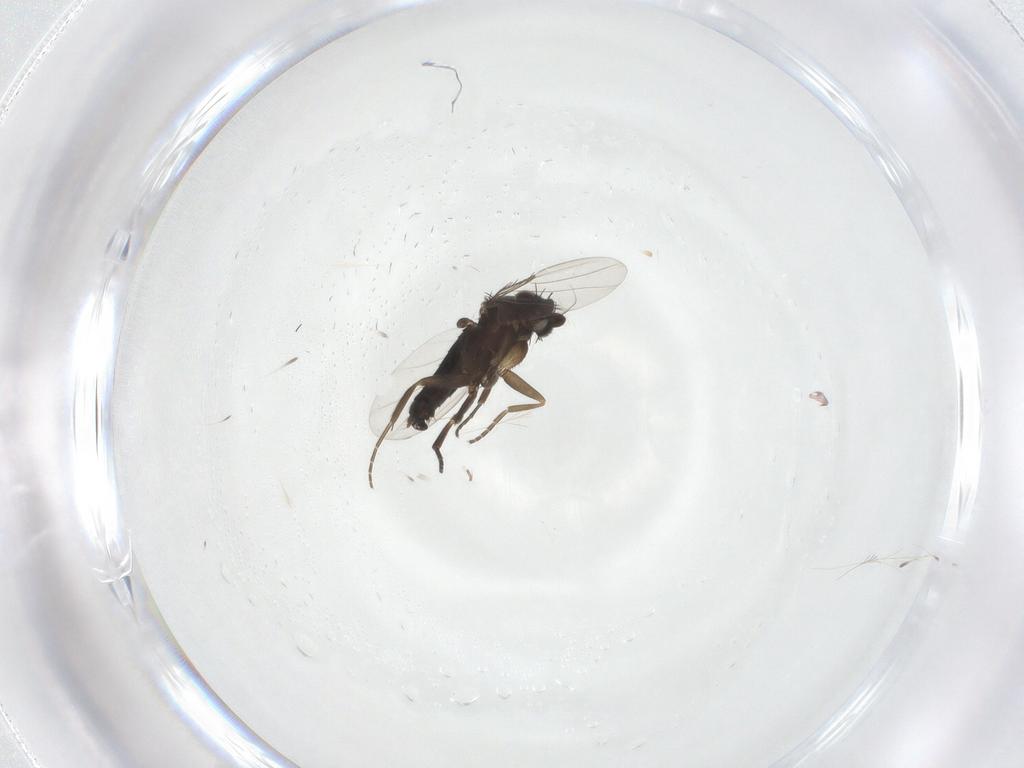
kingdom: Animalia
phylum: Arthropoda
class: Insecta
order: Diptera
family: Phoridae
